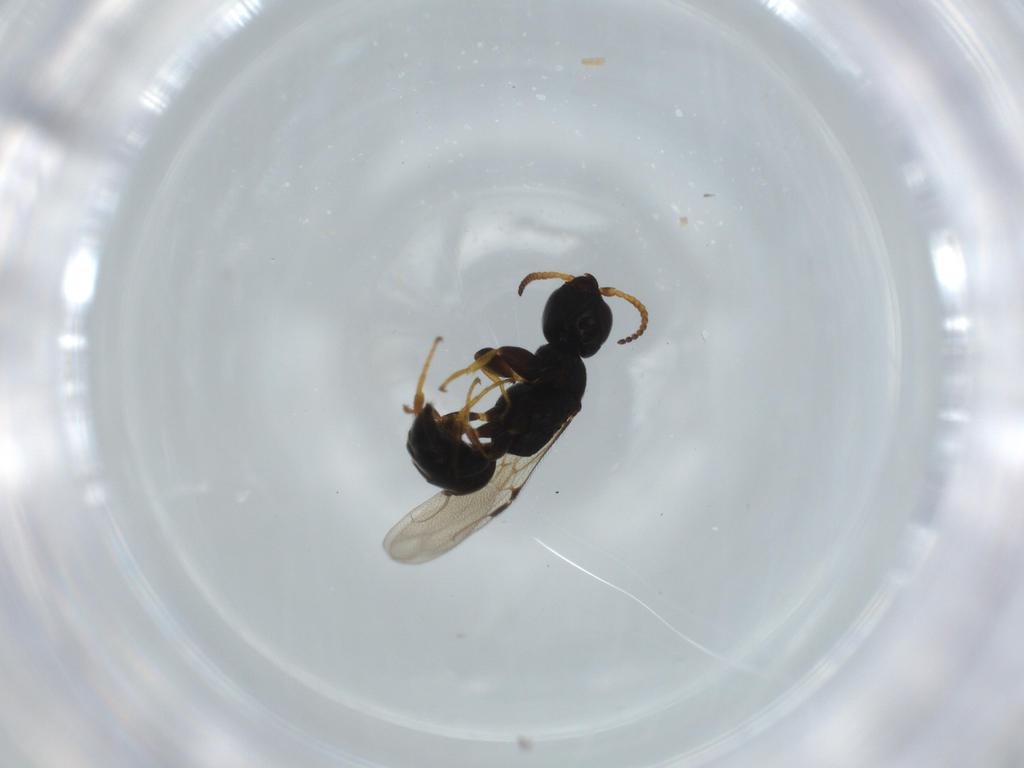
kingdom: Animalia
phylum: Arthropoda
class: Insecta
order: Hymenoptera
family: Bethylidae
